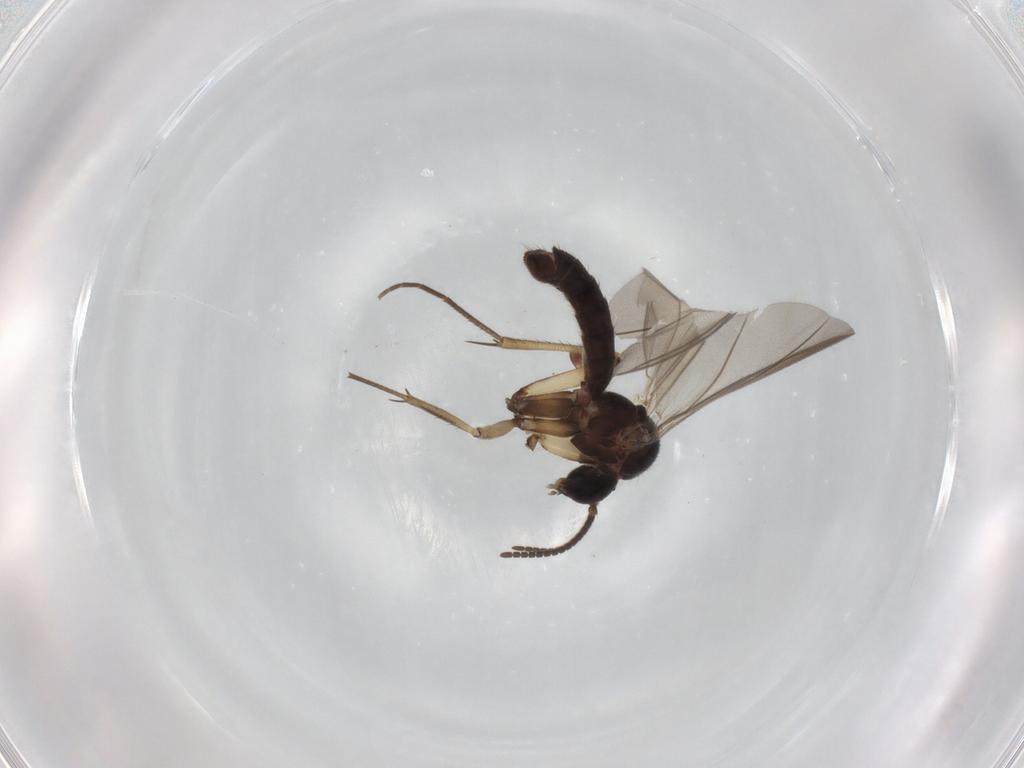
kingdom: Animalia
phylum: Arthropoda
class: Insecta
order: Diptera
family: Mycetophilidae
